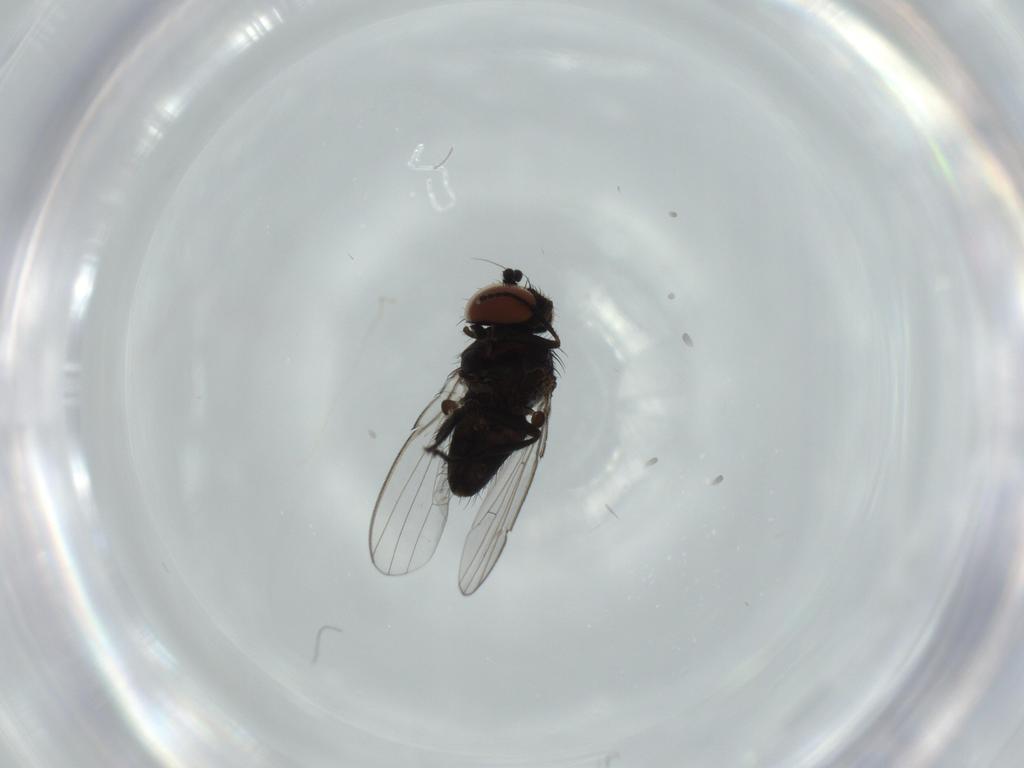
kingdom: Animalia
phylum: Arthropoda
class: Insecta
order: Diptera
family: Milichiidae
